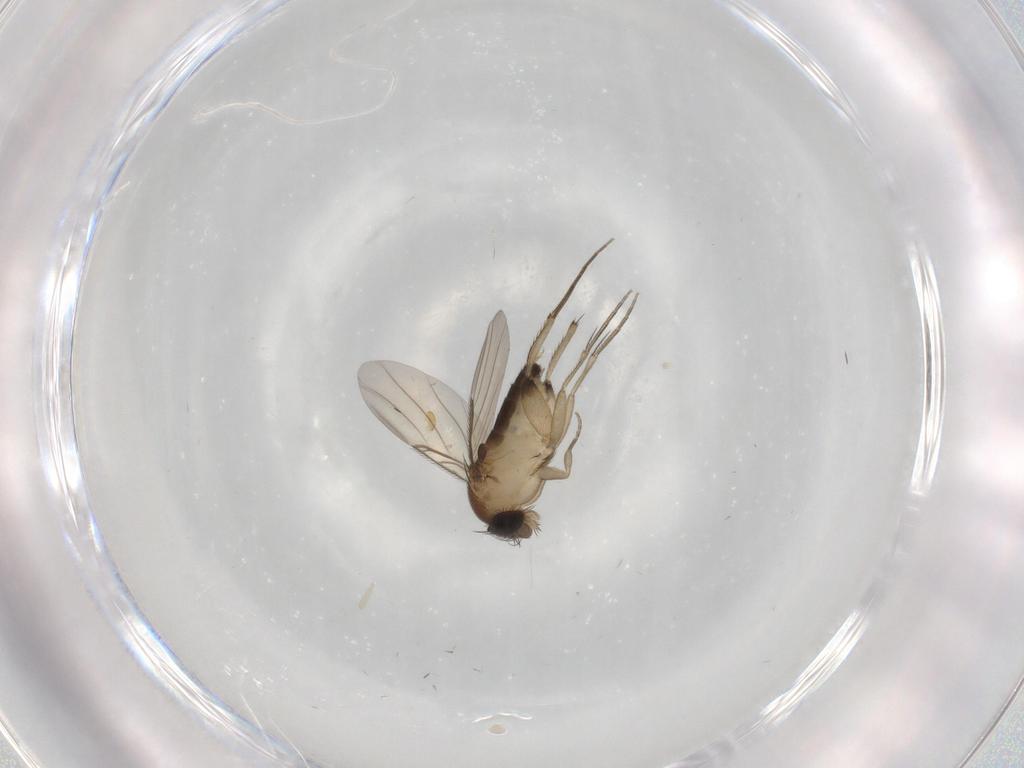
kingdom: Animalia
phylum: Arthropoda
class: Insecta
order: Diptera
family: Phoridae
